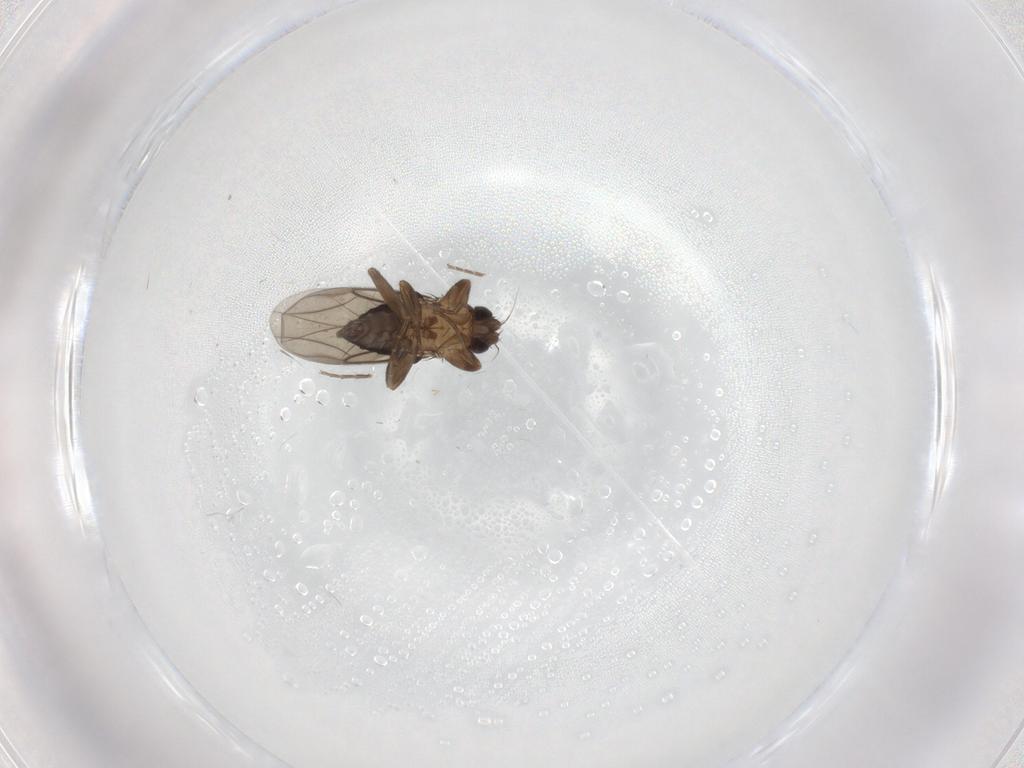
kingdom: Animalia
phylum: Arthropoda
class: Insecta
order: Diptera
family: Phoridae
